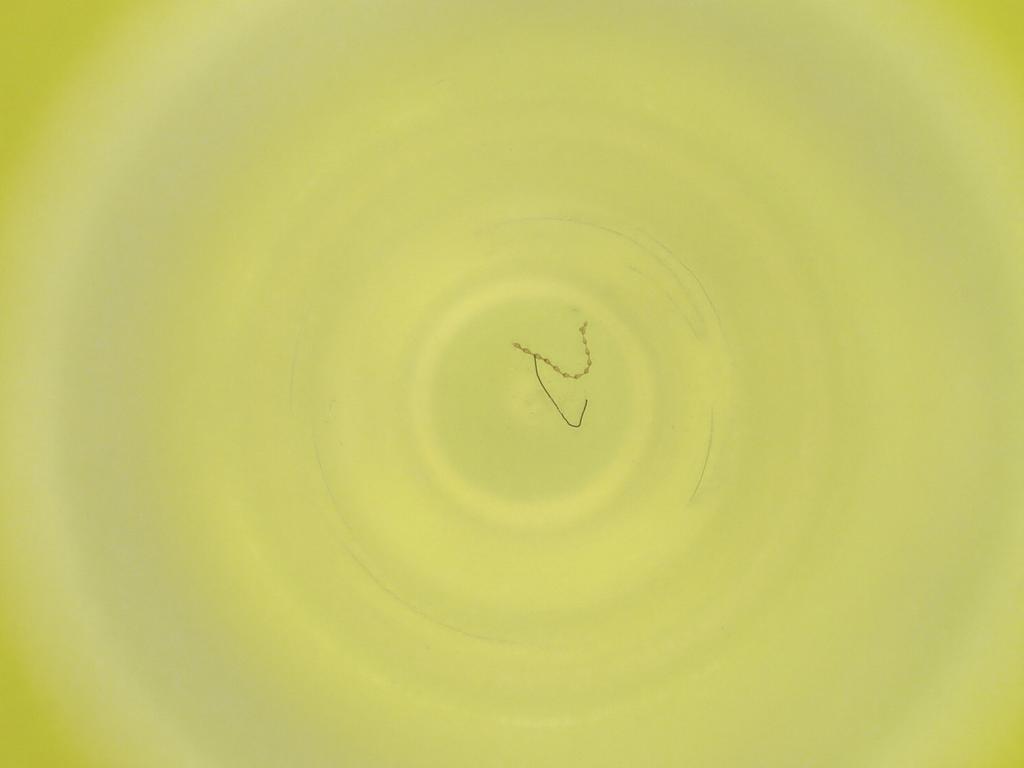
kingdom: Animalia
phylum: Arthropoda
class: Insecta
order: Diptera
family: Cecidomyiidae
